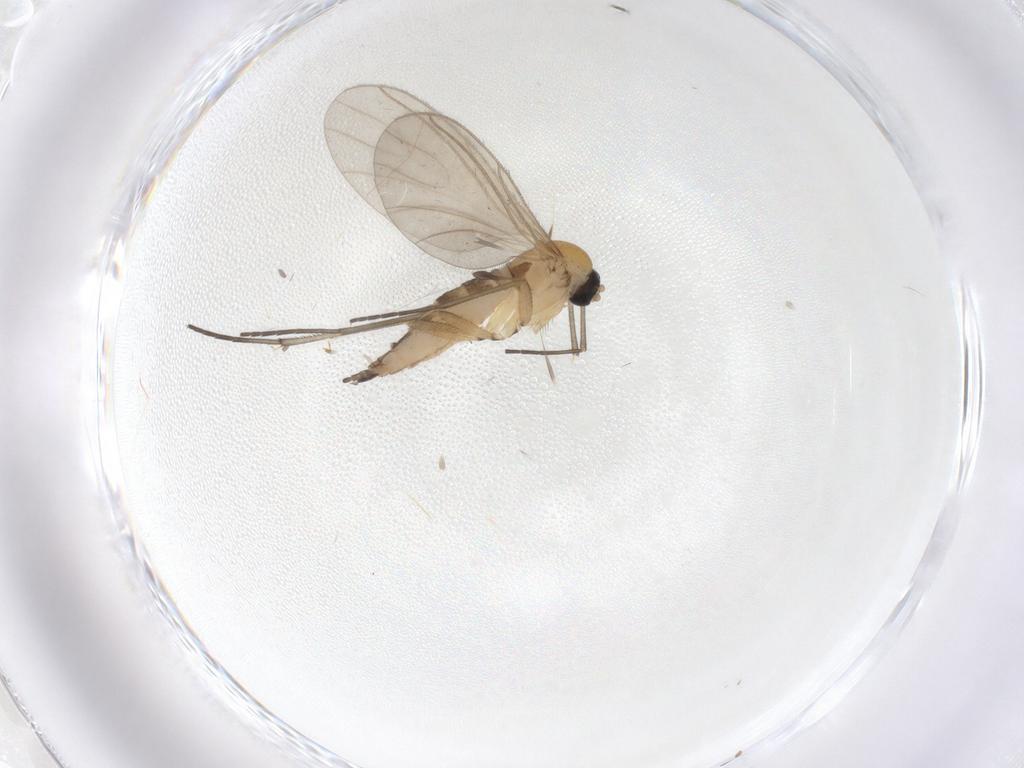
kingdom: Animalia
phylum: Arthropoda
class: Insecta
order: Diptera
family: Sciaridae
